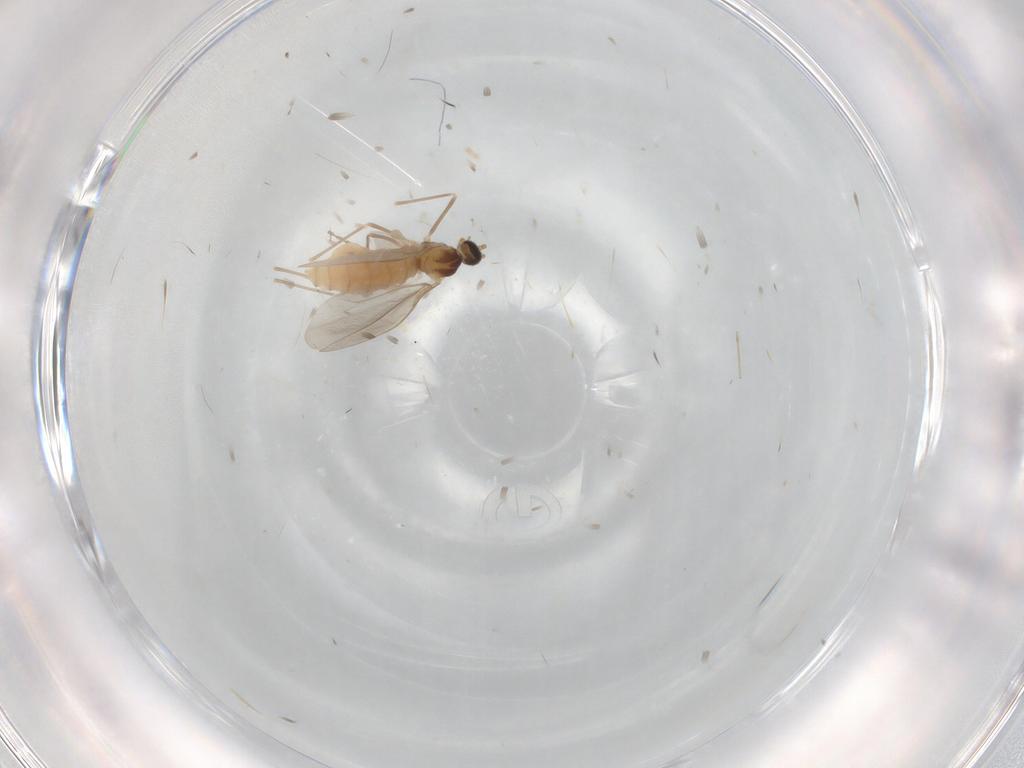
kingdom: Animalia
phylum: Arthropoda
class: Insecta
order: Diptera
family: Cecidomyiidae
